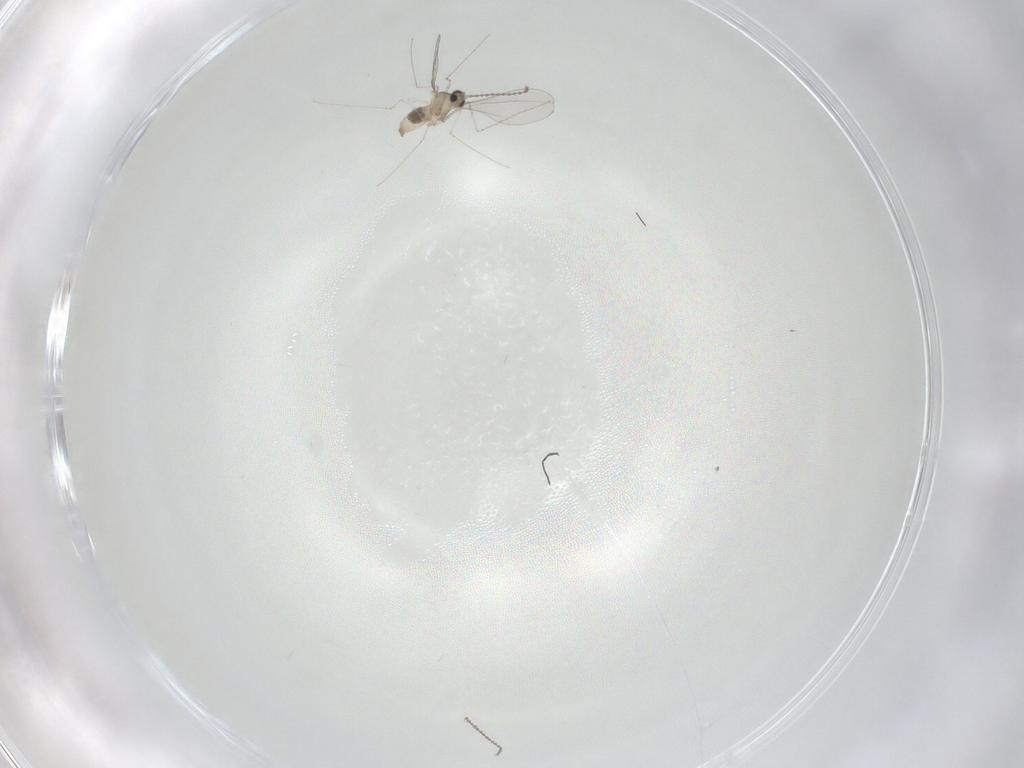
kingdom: Animalia
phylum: Arthropoda
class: Insecta
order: Diptera
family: Cecidomyiidae
